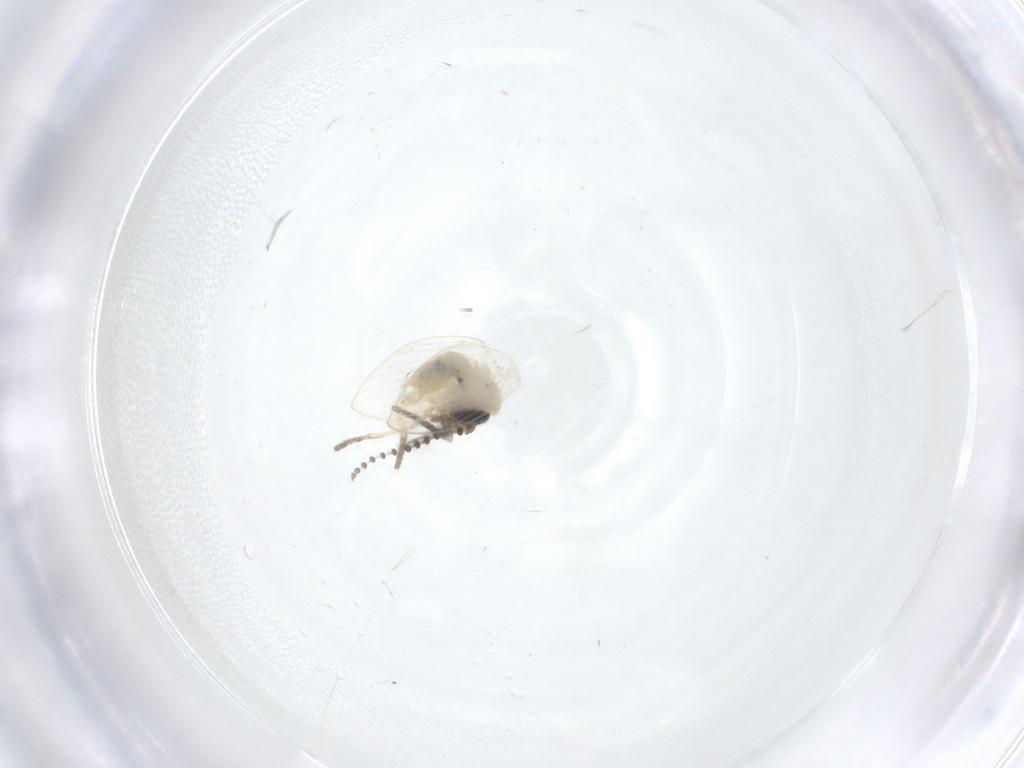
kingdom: Animalia
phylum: Arthropoda
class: Insecta
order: Diptera
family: Psychodidae
